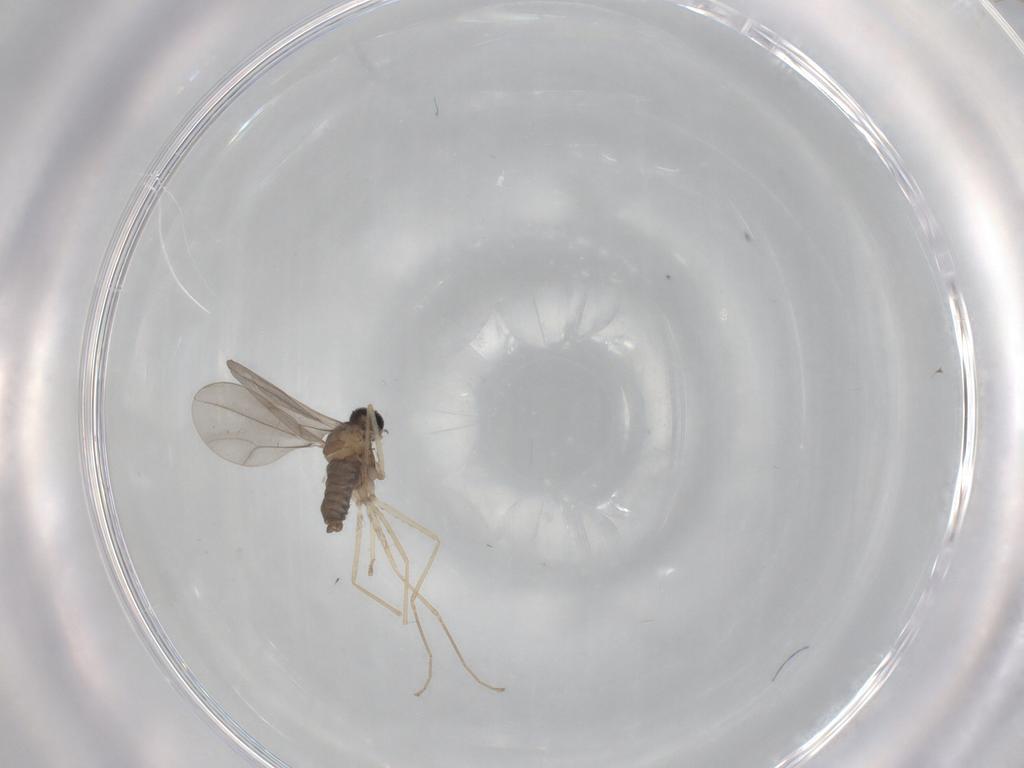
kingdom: Animalia
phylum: Arthropoda
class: Insecta
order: Diptera
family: Cecidomyiidae
